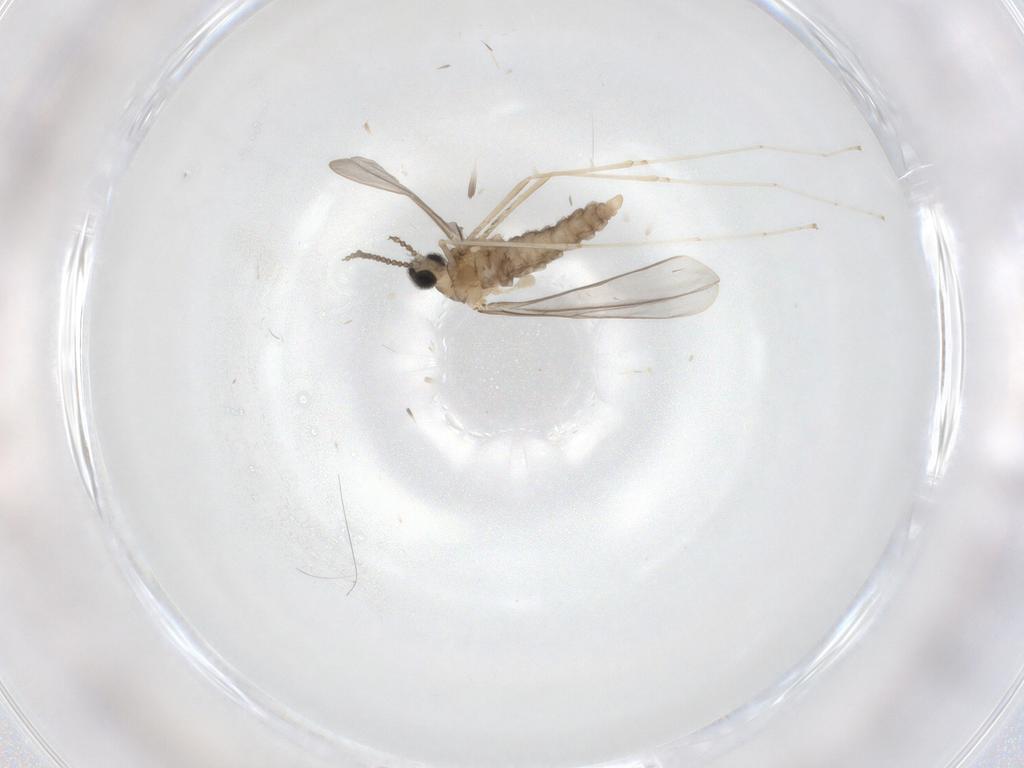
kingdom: Animalia
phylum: Arthropoda
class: Insecta
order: Diptera
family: Cecidomyiidae
